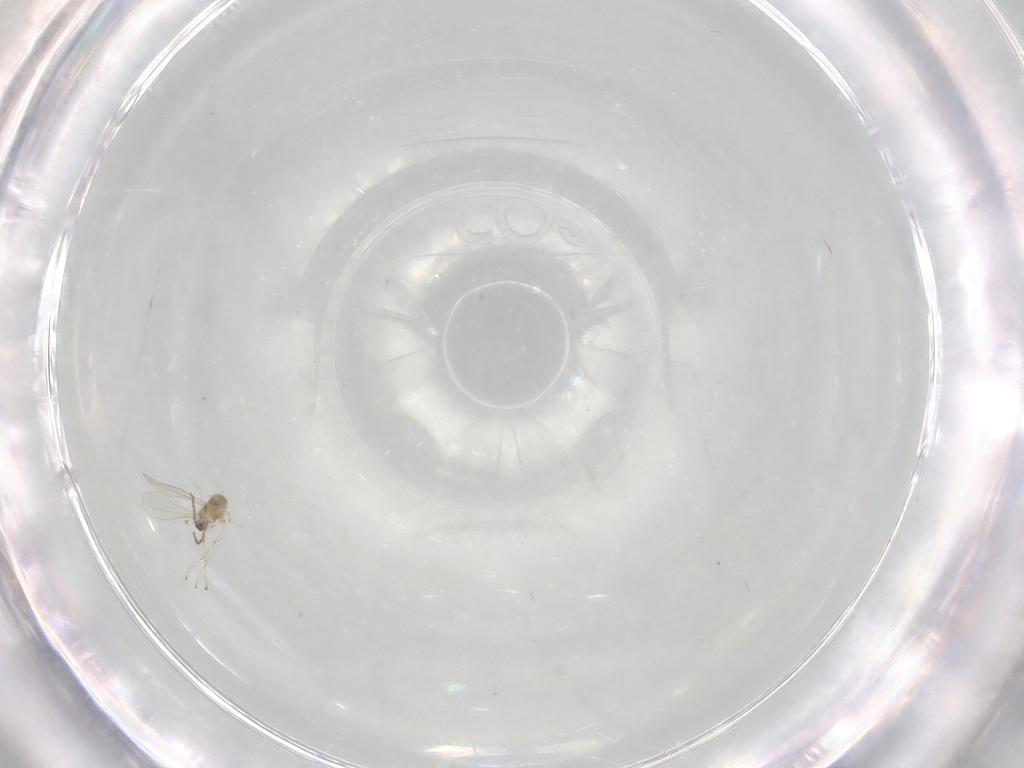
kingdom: Animalia
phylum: Arthropoda
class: Insecta
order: Diptera
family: Cecidomyiidae
